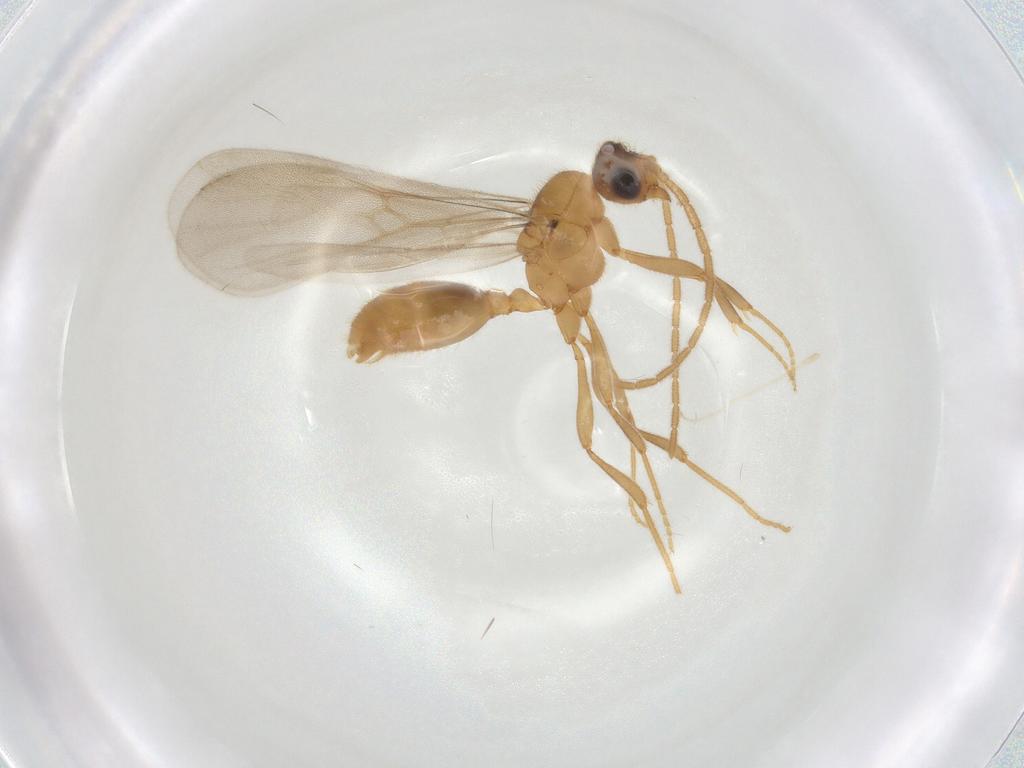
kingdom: Animalia
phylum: Arthropoda
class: Insecta
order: Hymenoptera
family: Formicidae
